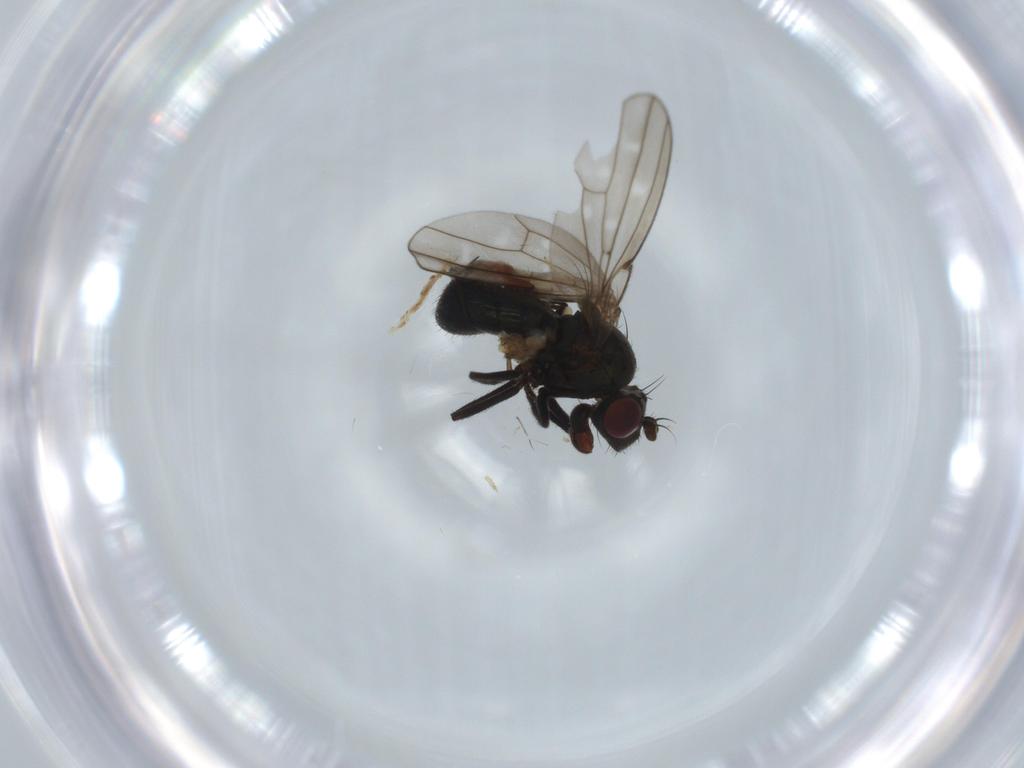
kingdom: Animalia
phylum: Arthropoda
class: Insecta
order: Diptera
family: Ephydridae
